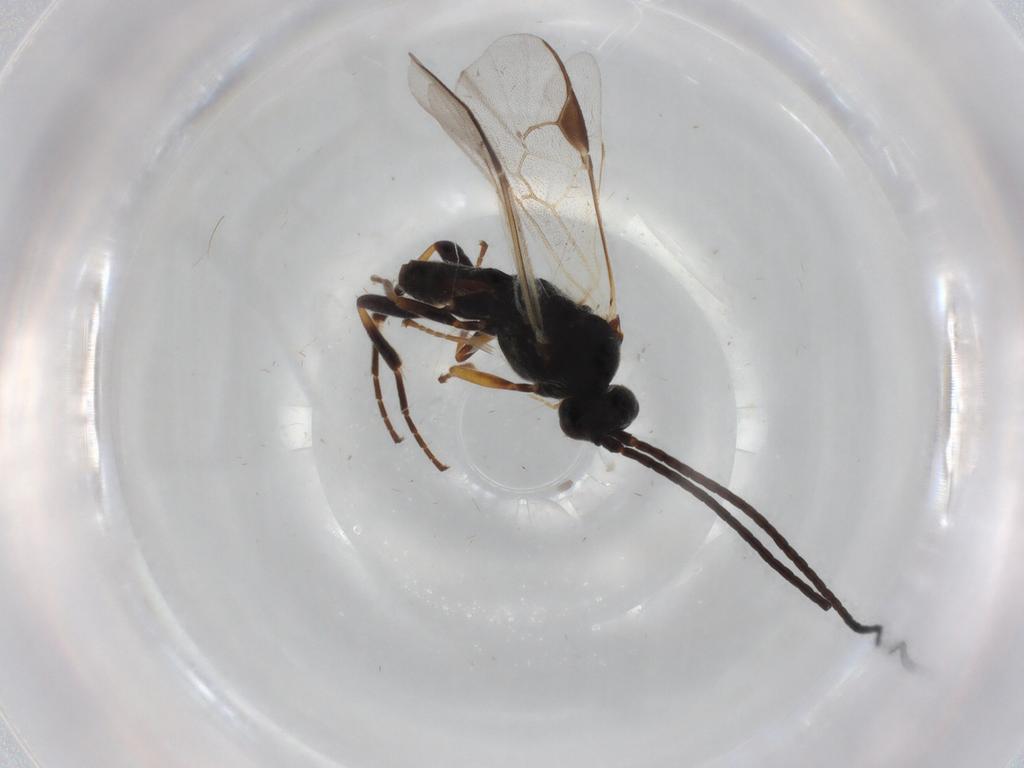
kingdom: Animalia
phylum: Arthropoda
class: Insecta
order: Hymenoptera
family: Braconidae
